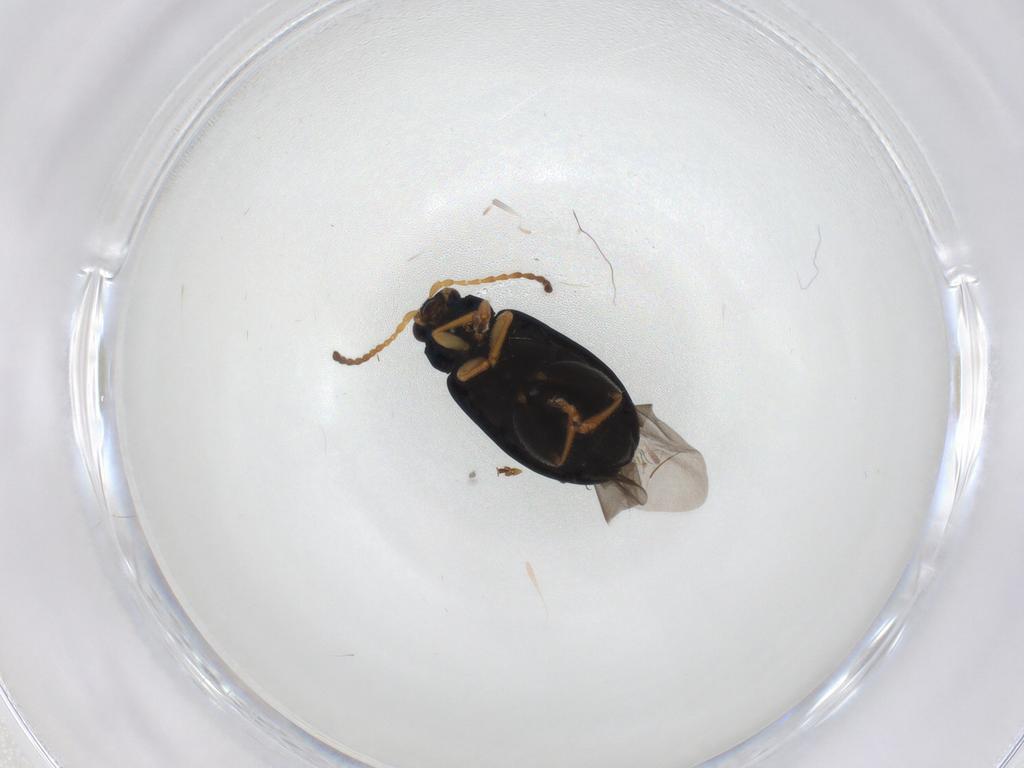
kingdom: Animalia
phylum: Arthropoda
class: Insecta
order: Coleoptera
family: Chrysomelidae
